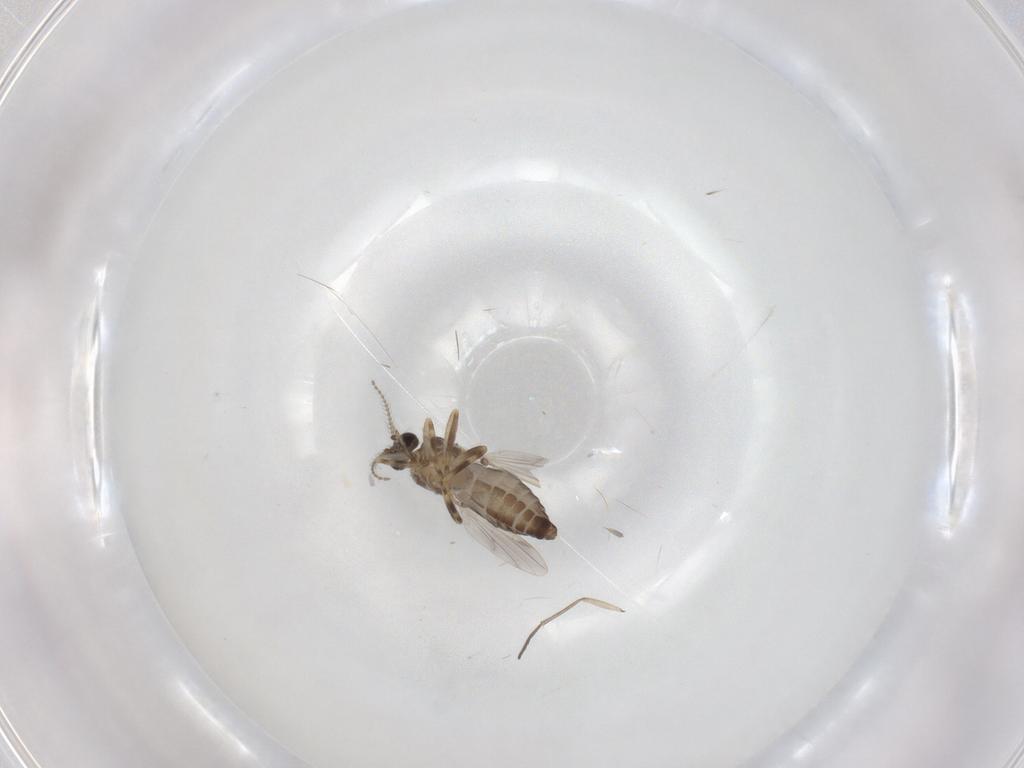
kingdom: Animalia
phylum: Arthropoda
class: Insecta
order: Diptera
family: Ceratopogonidae
